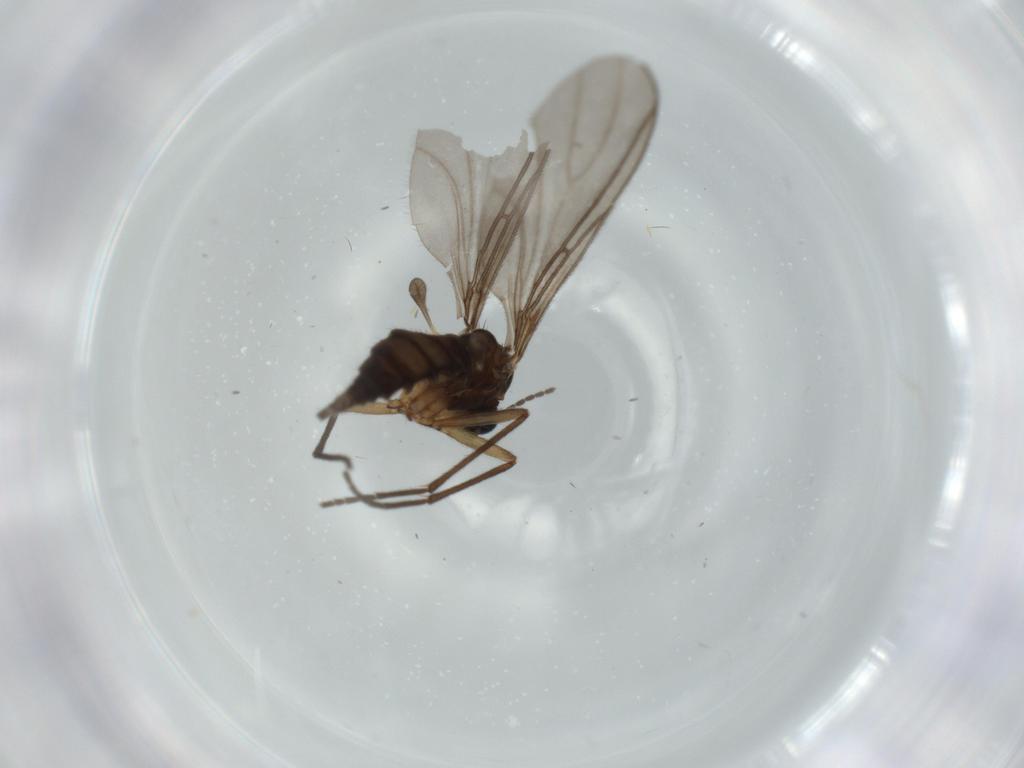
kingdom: Animalia
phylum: Arthropoda
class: Insecta
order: Diptera
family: Sciaridae
